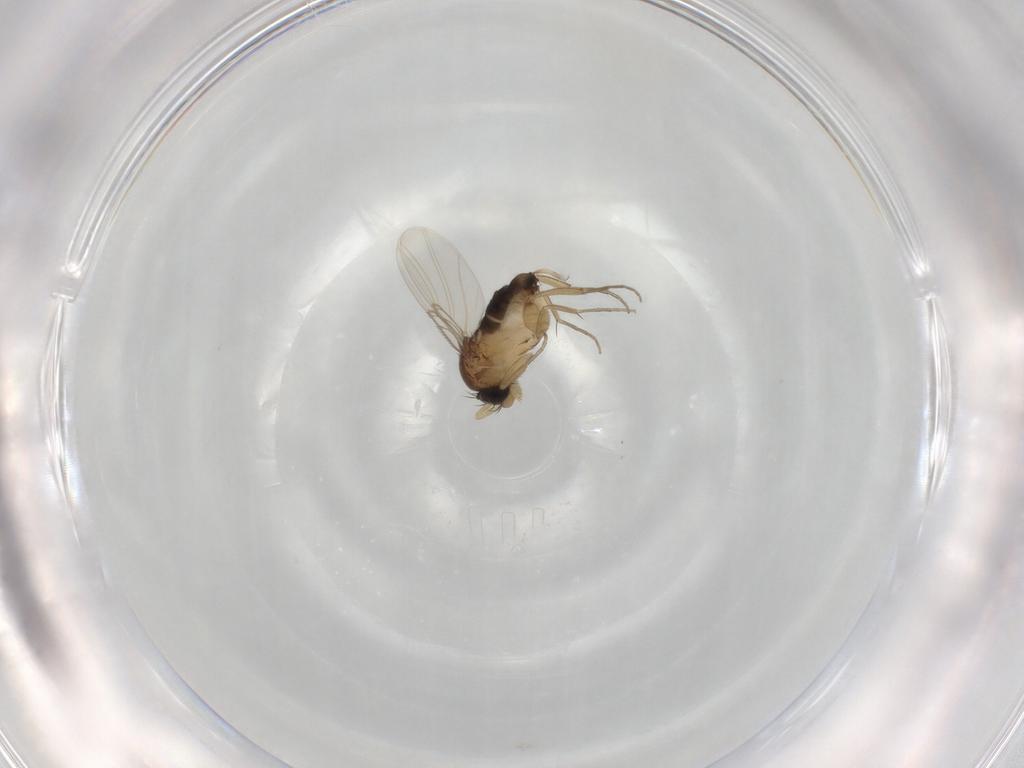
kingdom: Animalia
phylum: Arthropoda
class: Insecta
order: Diptera
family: Phoridae
